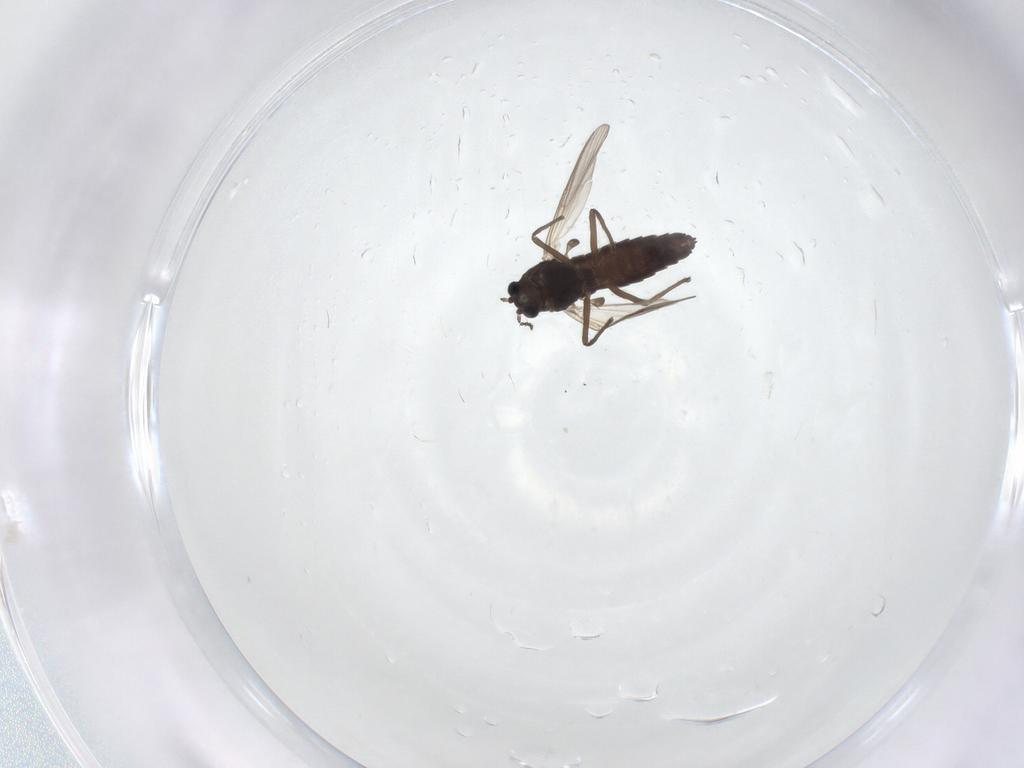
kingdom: Animalia
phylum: Arthropoda
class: Insecta
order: Diptera
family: Chironomidae
